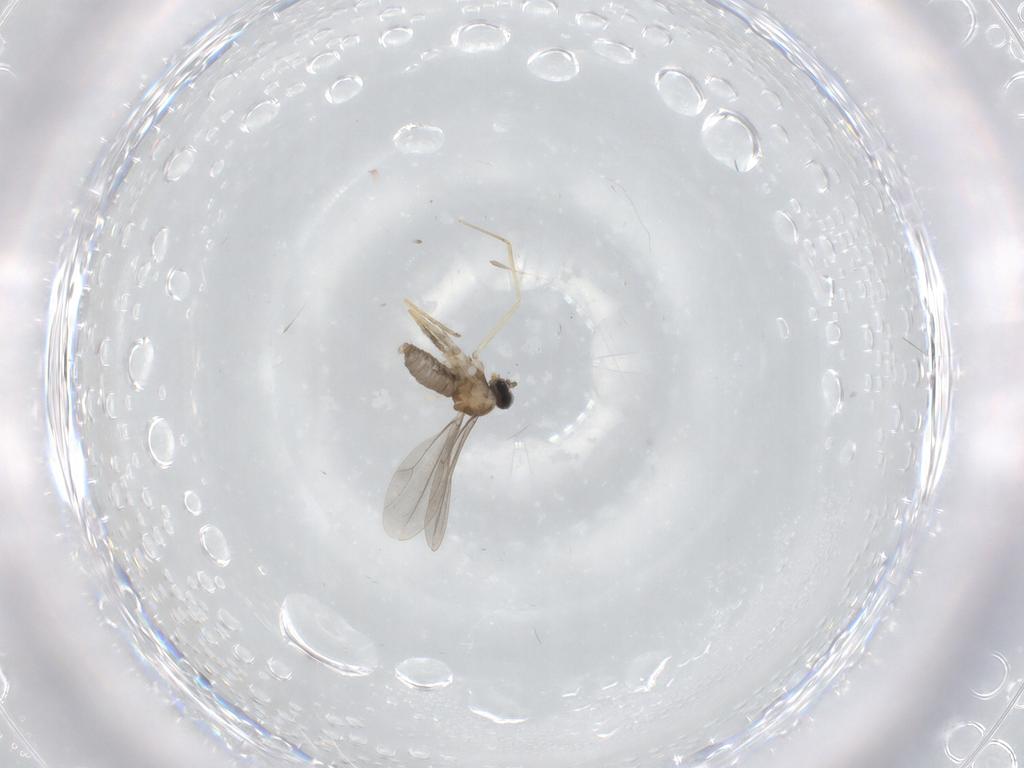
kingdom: Animalia
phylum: Arthropoda
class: Insecta
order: Diptera
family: Cecidomyiidae
